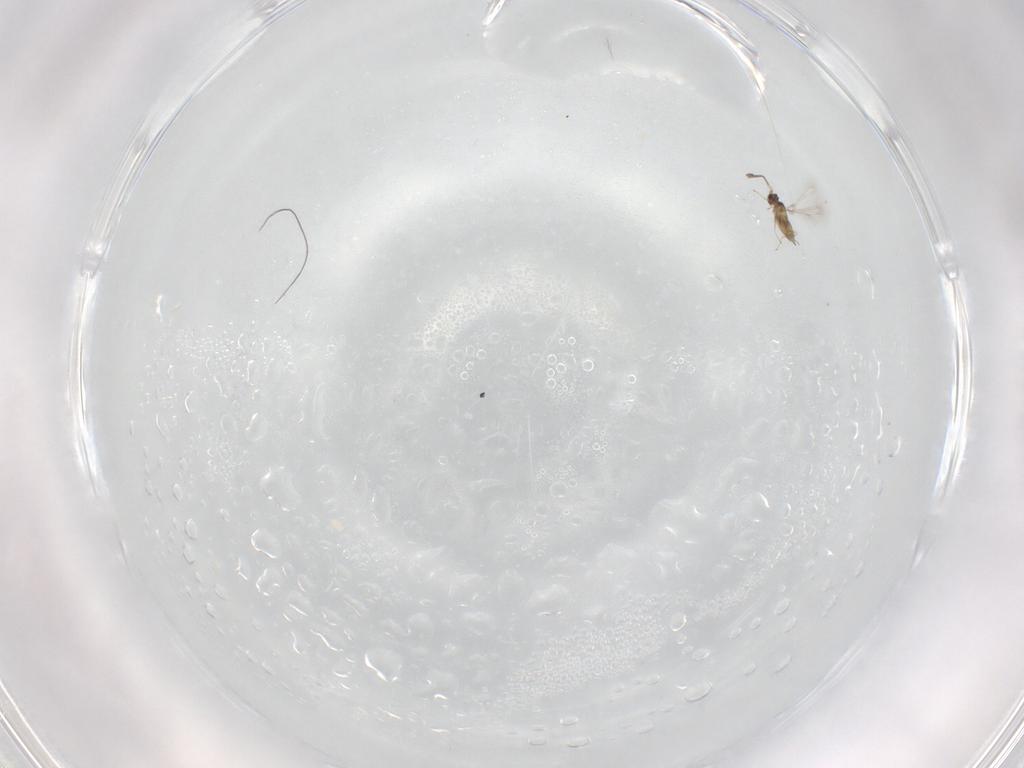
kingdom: Animalia
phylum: Arthropoda
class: Insecta
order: Hymenoptera
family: Mymaridae
